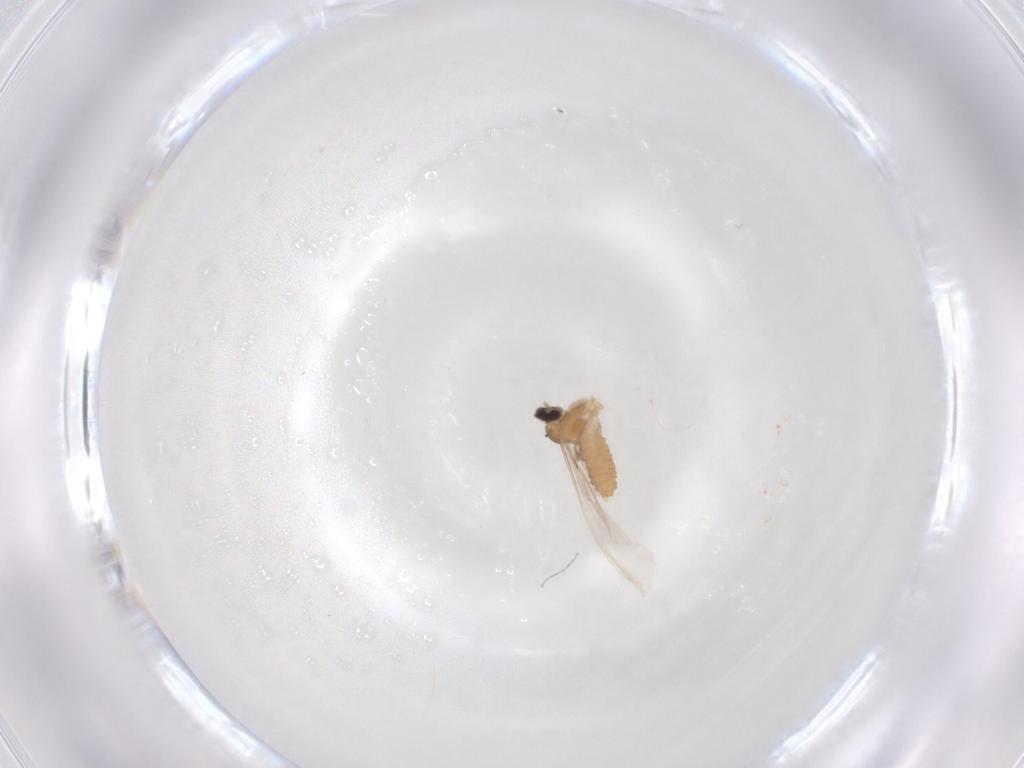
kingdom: Animalia
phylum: Arthropoda
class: Insecta
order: Diptera
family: Cecidomyiidae
